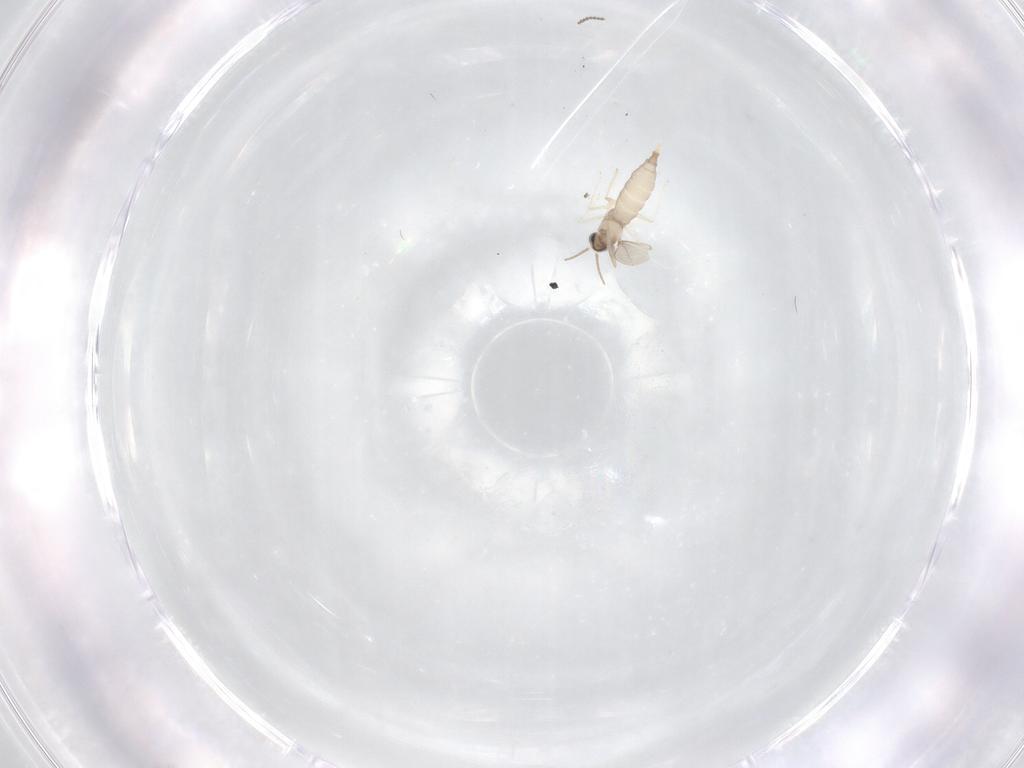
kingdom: Animalia
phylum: Arthropoda
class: Insecta
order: Diptera
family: Cecidomyiidae
